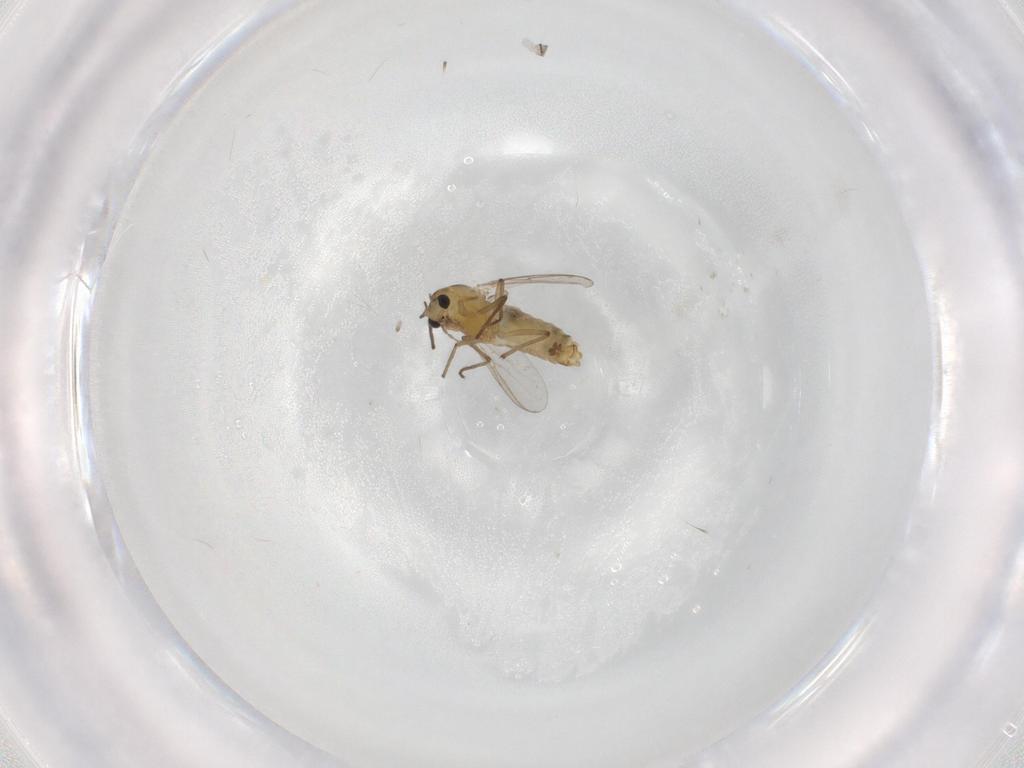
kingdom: Animalia
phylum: Arthropoda
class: Insecta
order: Diptera
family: Chironomidae
